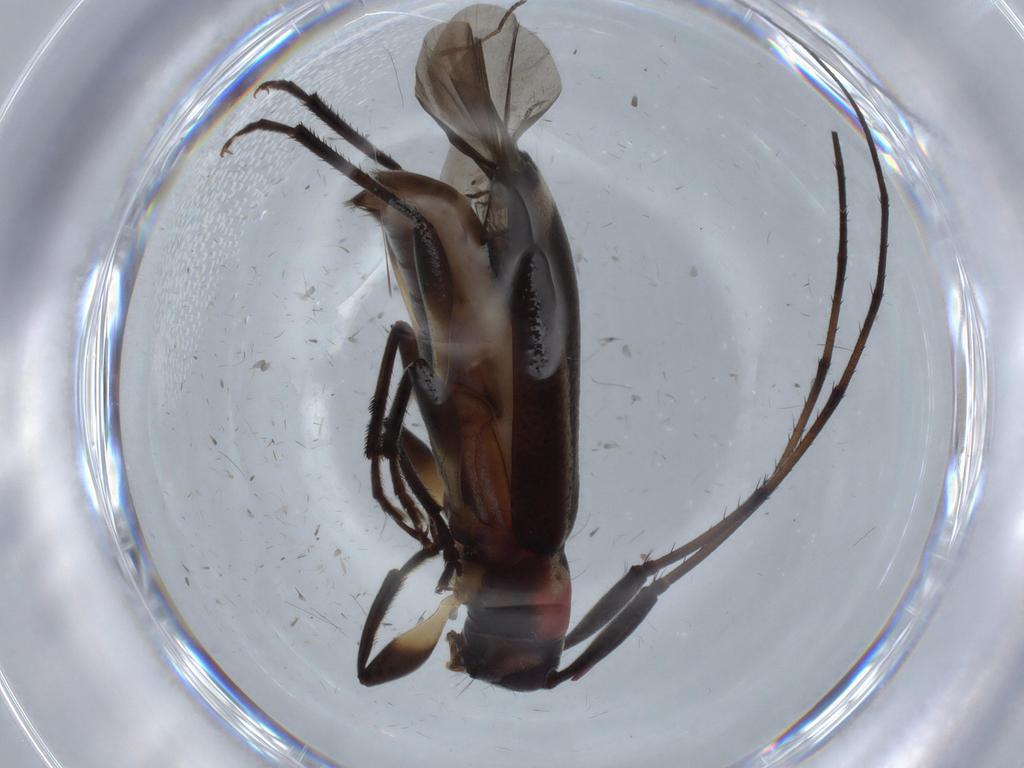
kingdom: Animalia
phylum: Arthropoda
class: Insecta
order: Coleoptera
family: Cerambycidae
